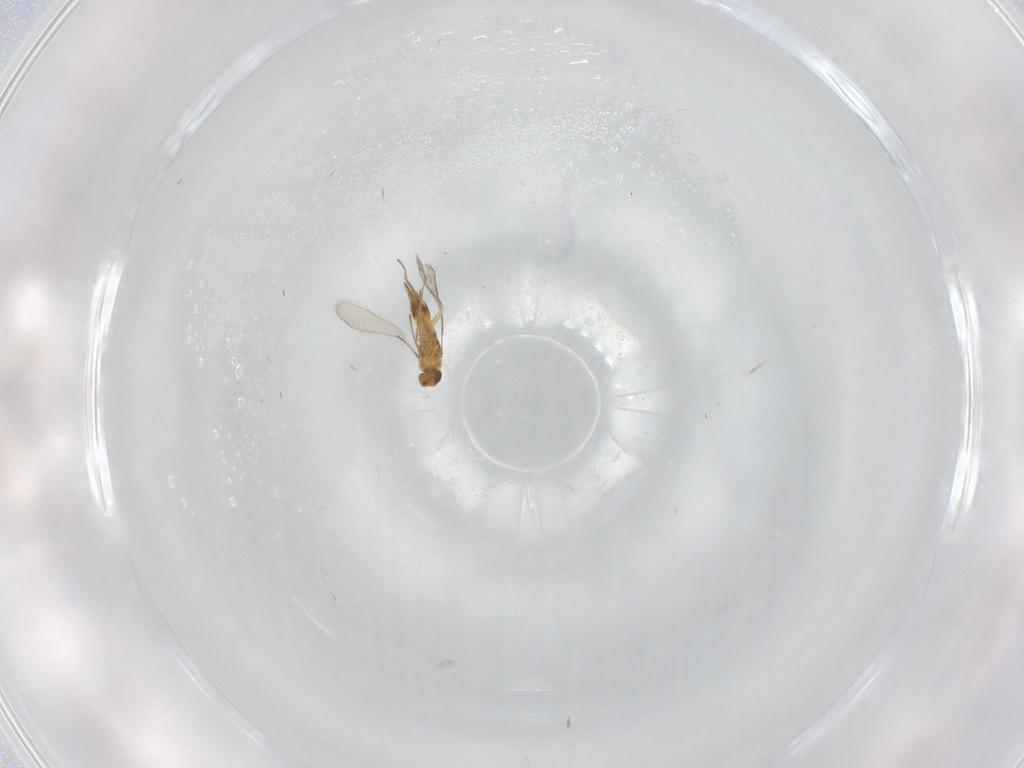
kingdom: Animalia
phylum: Arthropoda
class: Insecta
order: Hymenoptera
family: Mymaridae
